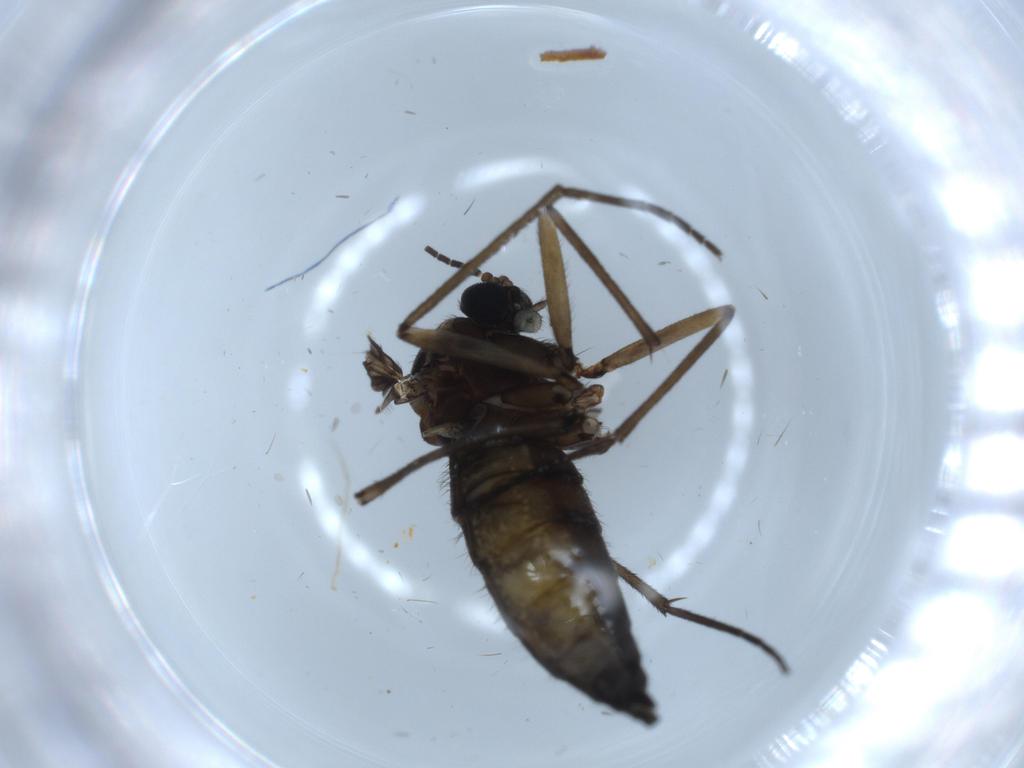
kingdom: Animalia
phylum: Arthropoda
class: Insecta
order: Diptera
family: Sciaridae
